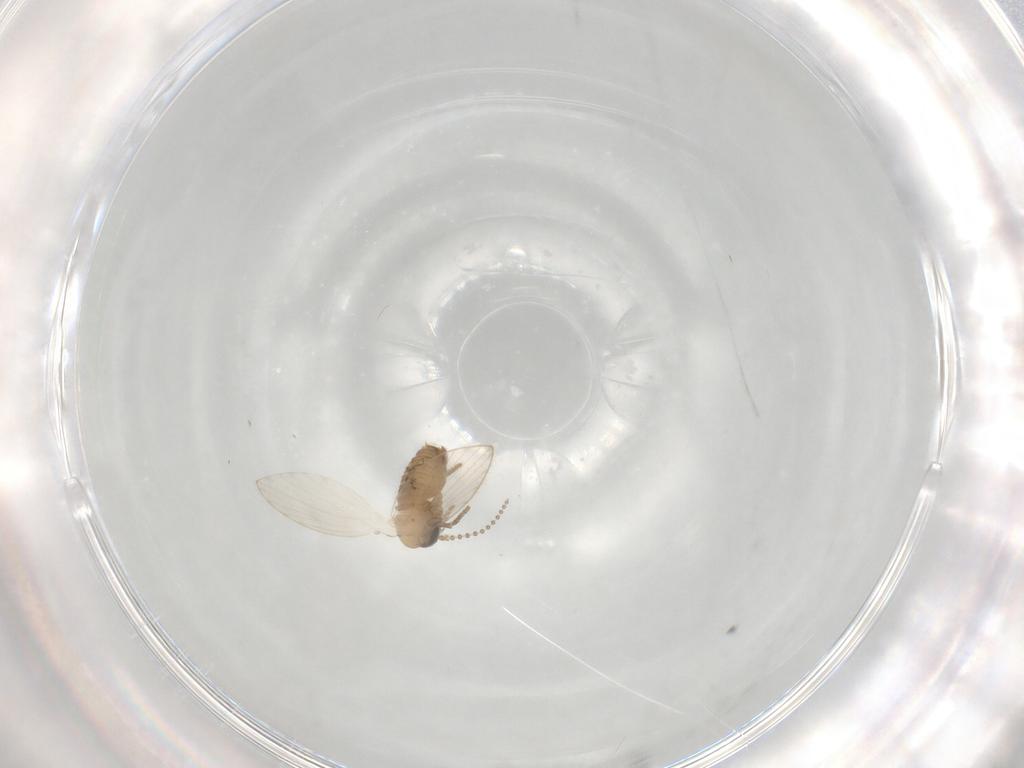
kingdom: Animalia
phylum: Arthropoda
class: Insecta
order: Diptera
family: Psychodidae
